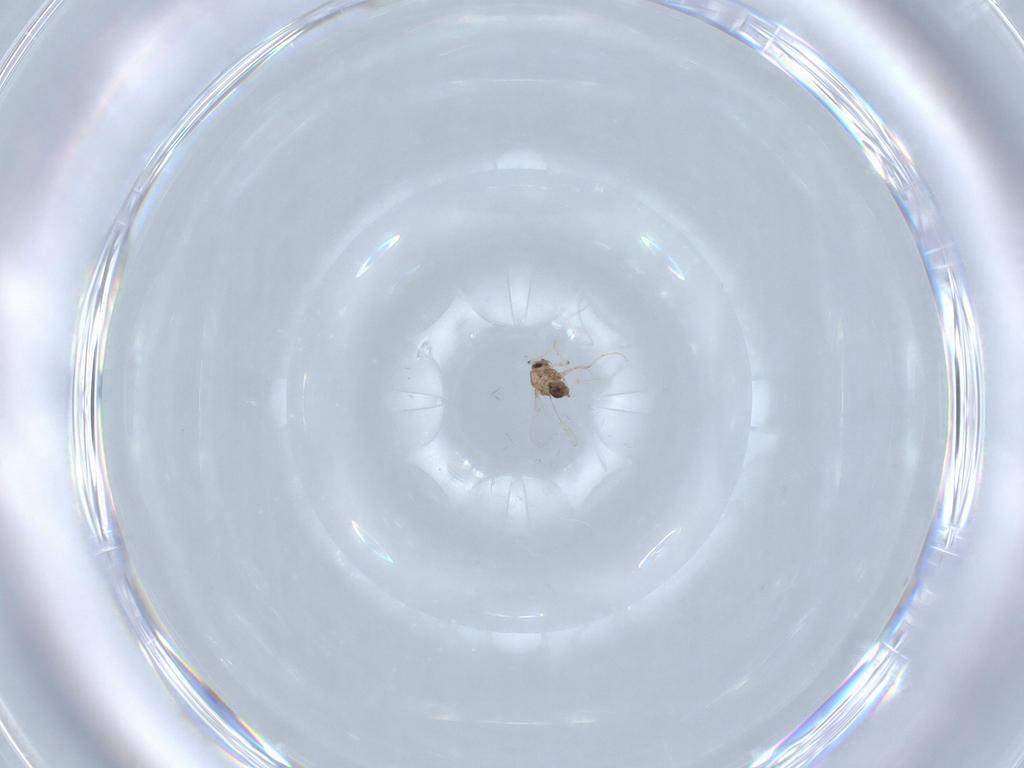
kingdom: Animalia
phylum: Arthropoda
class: Insecta
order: Diptera
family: Chironomidae
